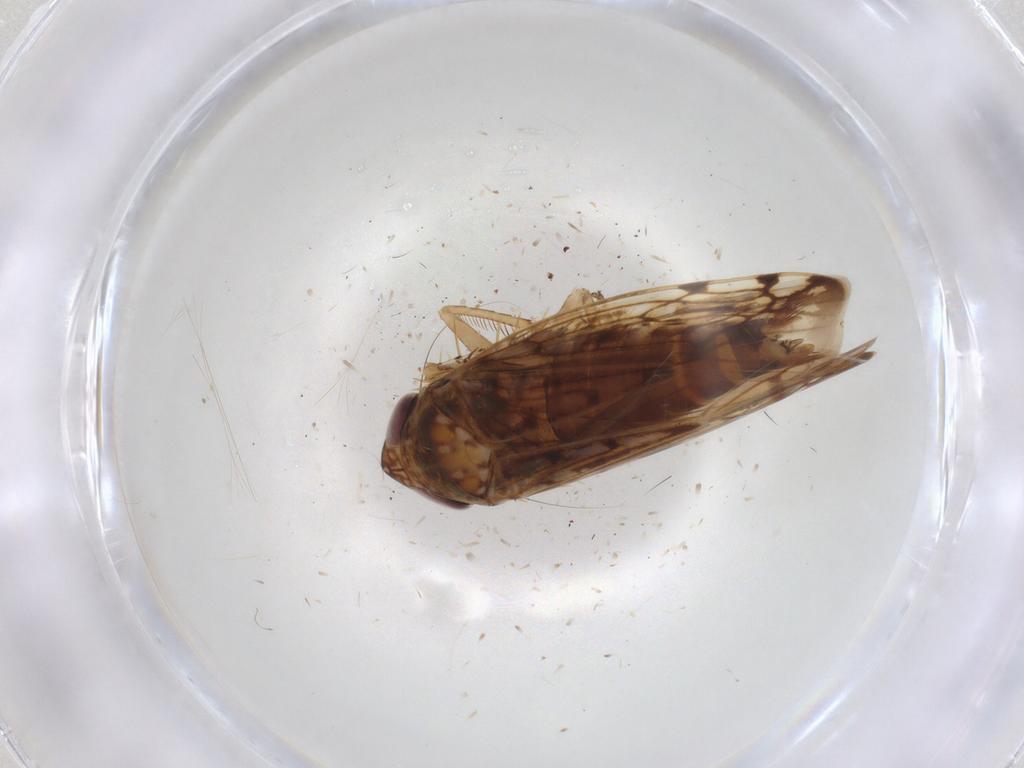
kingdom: Animalia
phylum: Arthropoda
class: Insecta
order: Hemiptera
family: Cicadellidae
